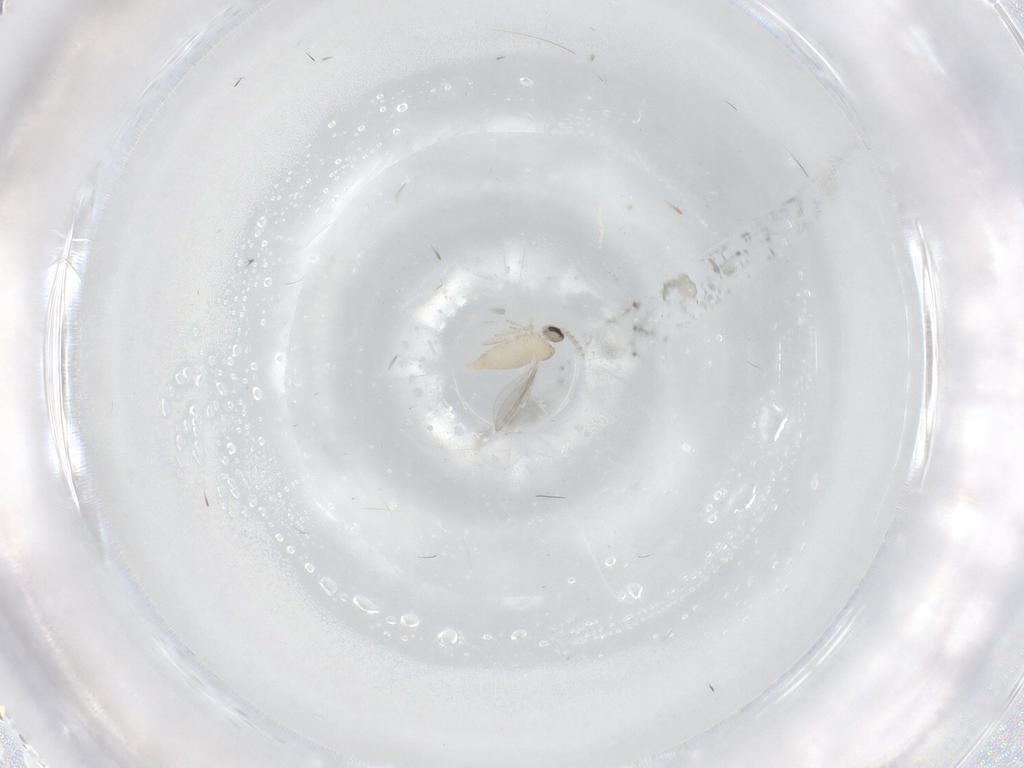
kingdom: Animalia
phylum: Arthropoda
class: Insecta
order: Diptera
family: Cecidomyiidae
